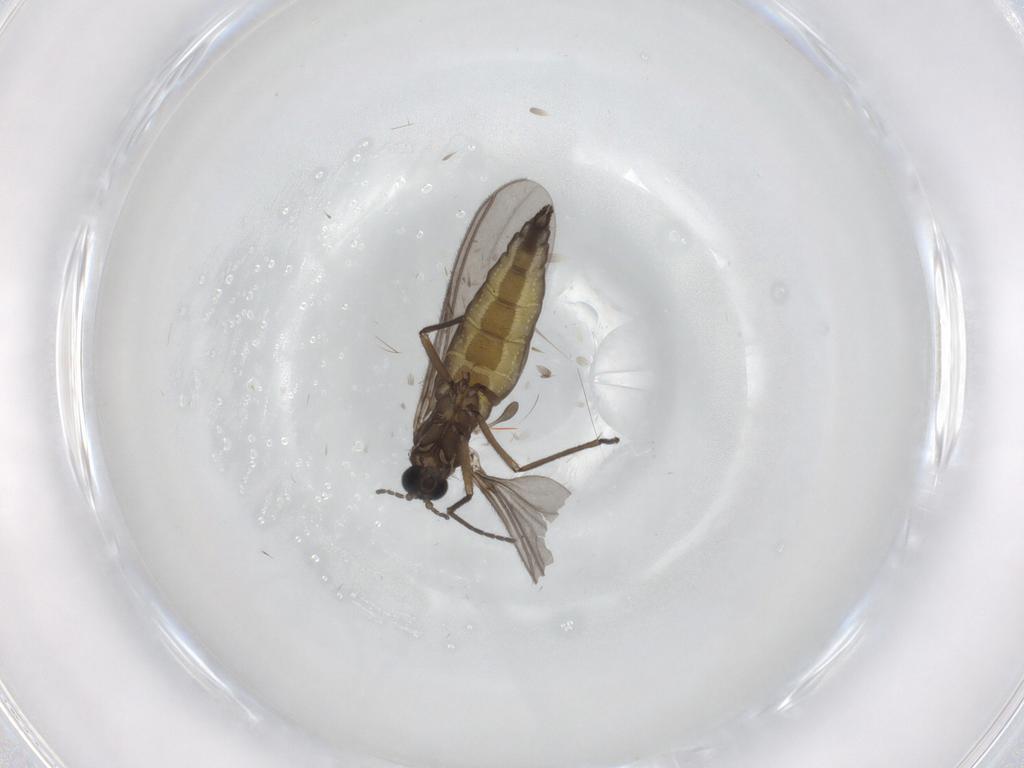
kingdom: Animalia
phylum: Arthropoda
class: Insecta
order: Diptera
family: Sciaridae
